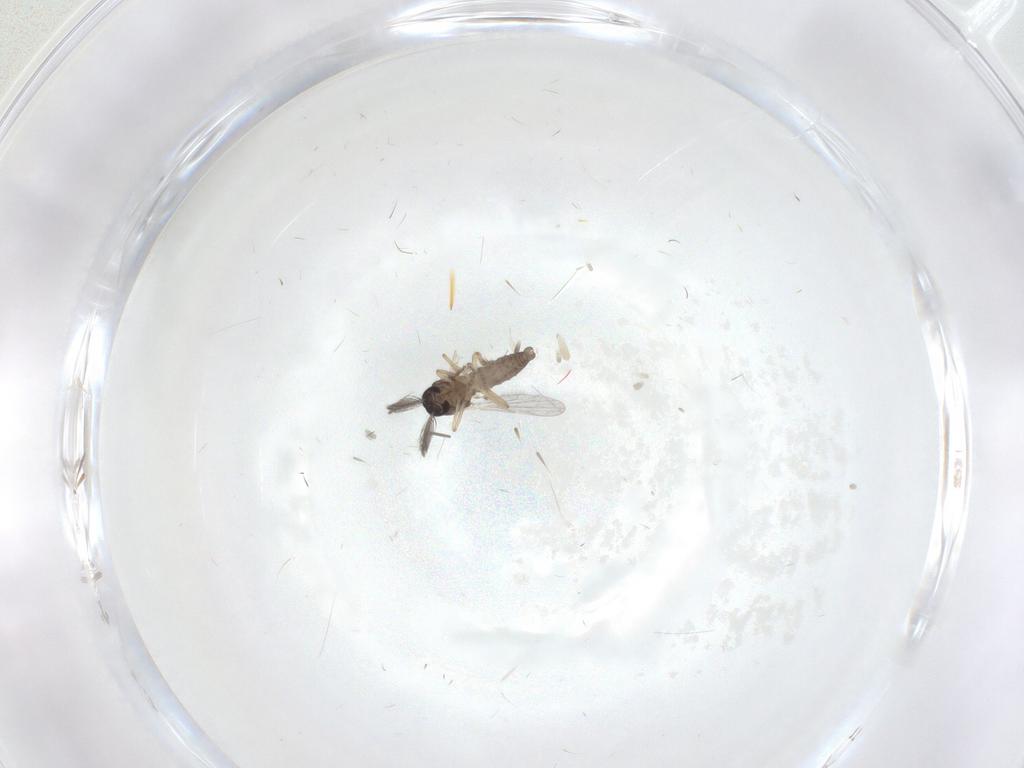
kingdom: Animalia
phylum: Arthropoda
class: Insecta
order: Diptera
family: Ceratopogonidae
